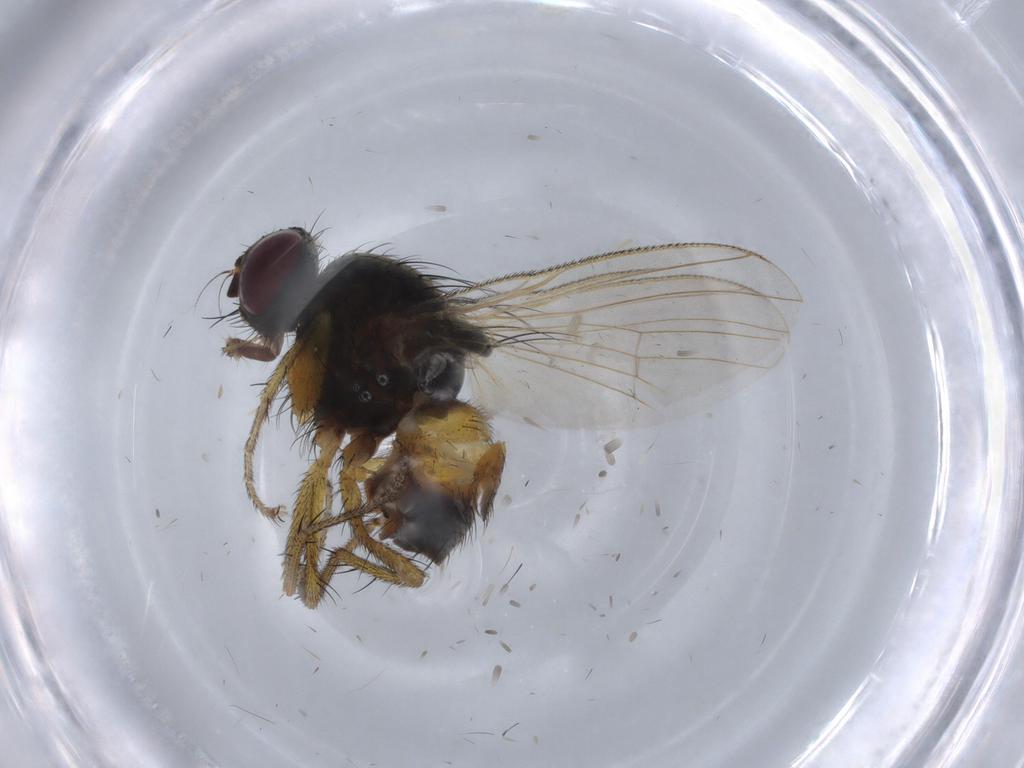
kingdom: Animalia
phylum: Arthropoda
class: Insecta
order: Diptera
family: Muscidae
